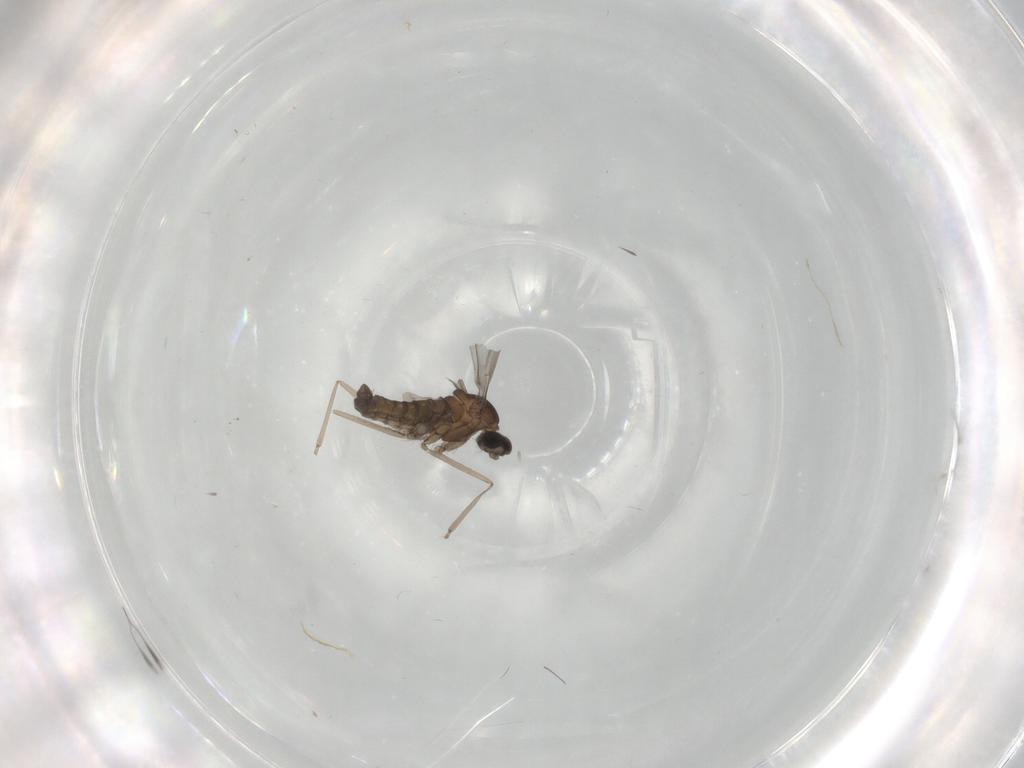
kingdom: Animalia
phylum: Arthropoda
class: Insecta
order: Diptera
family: Cecidomyiidae
